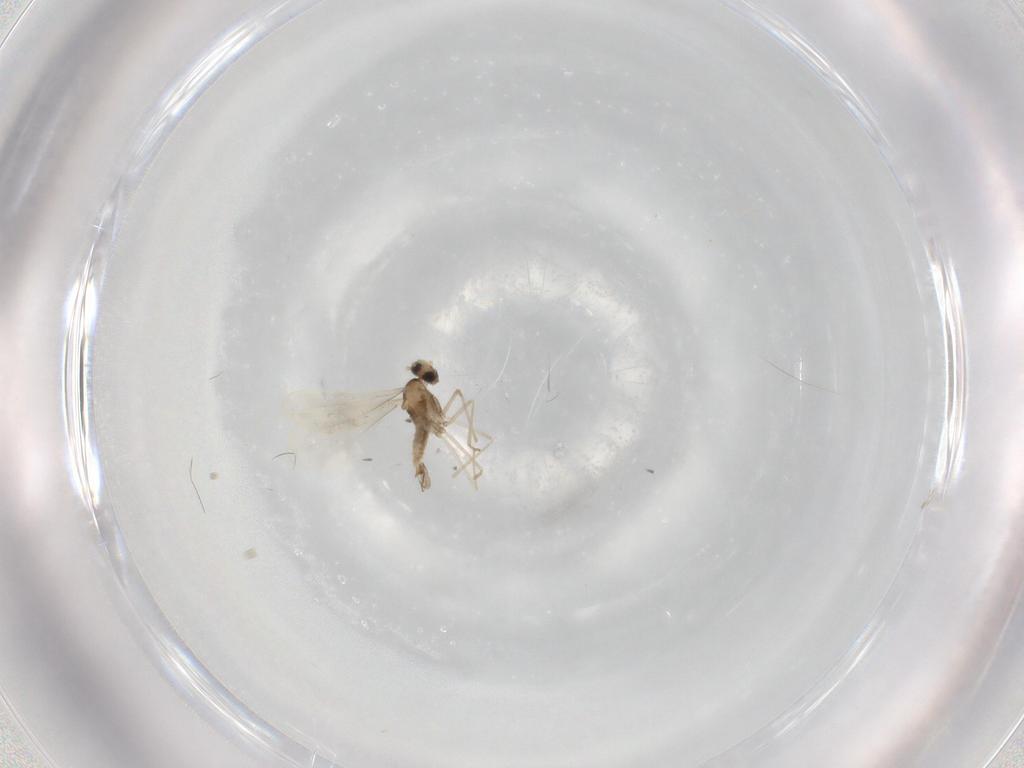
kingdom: Animalia
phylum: Arthropoda
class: Insecta
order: Diptera
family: Cecidomyiidae
